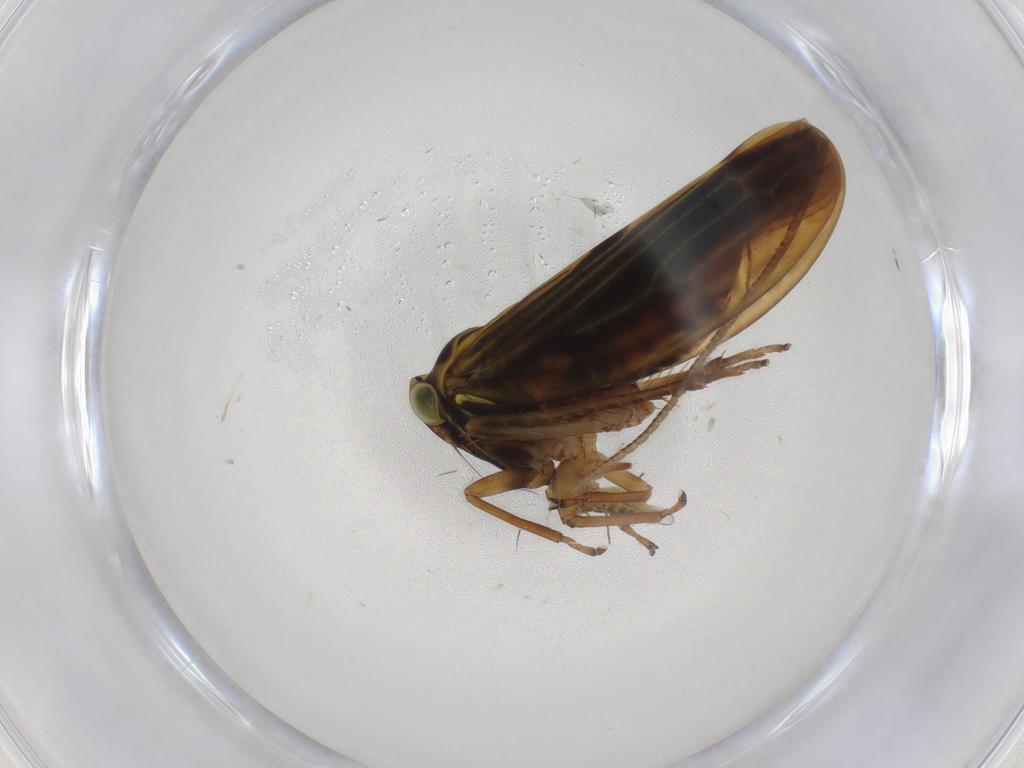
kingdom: Animalia
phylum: Arthropoda
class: Insecta
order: Hemiptera
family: Cicadellidae
